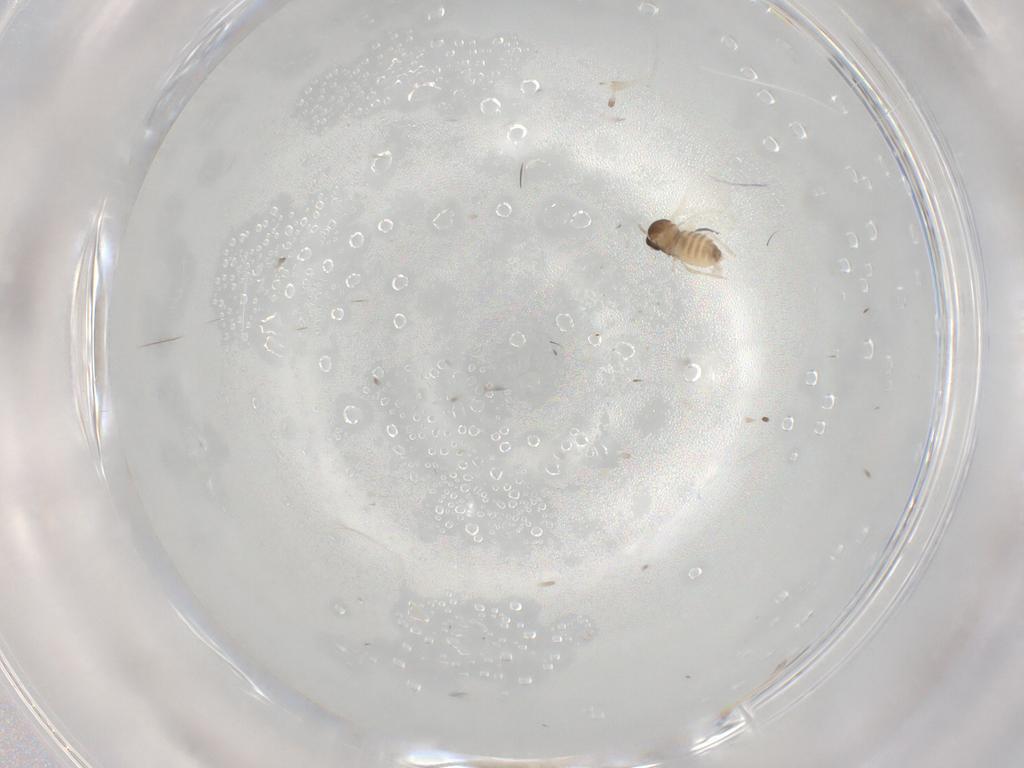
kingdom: Animalia
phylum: Arthropoda
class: Insecta
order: Diptera
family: Cecidomyiidae
